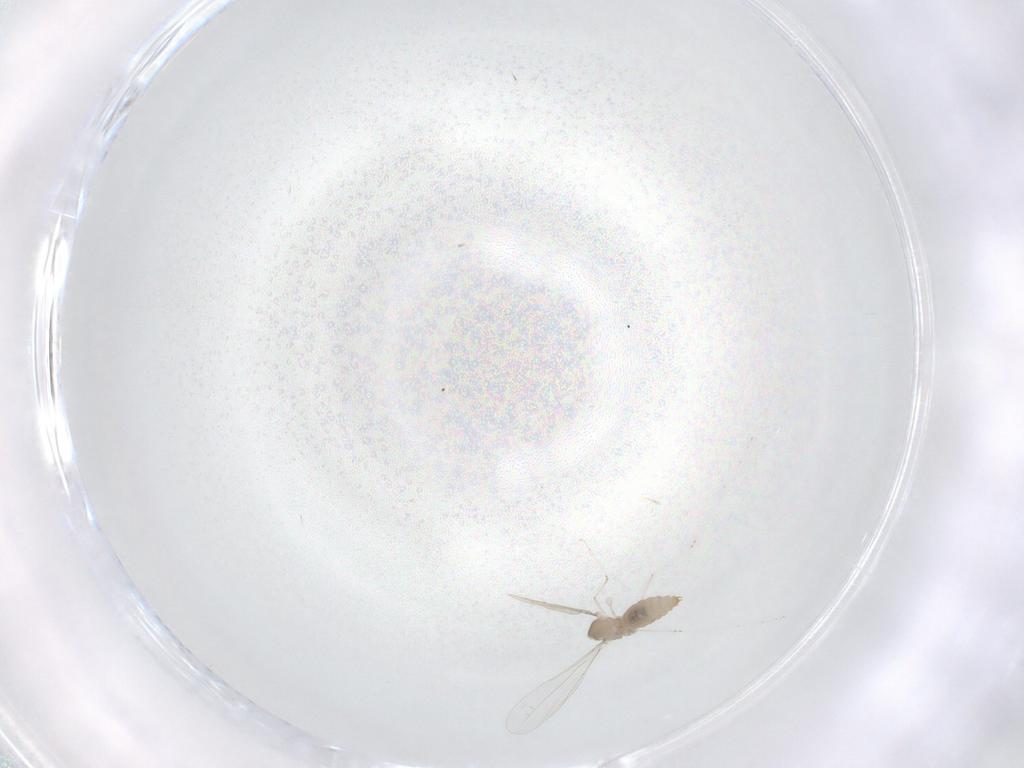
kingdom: Animalia
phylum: Arthropoda
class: Insecta
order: Diptera
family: Cecidomyiidae
